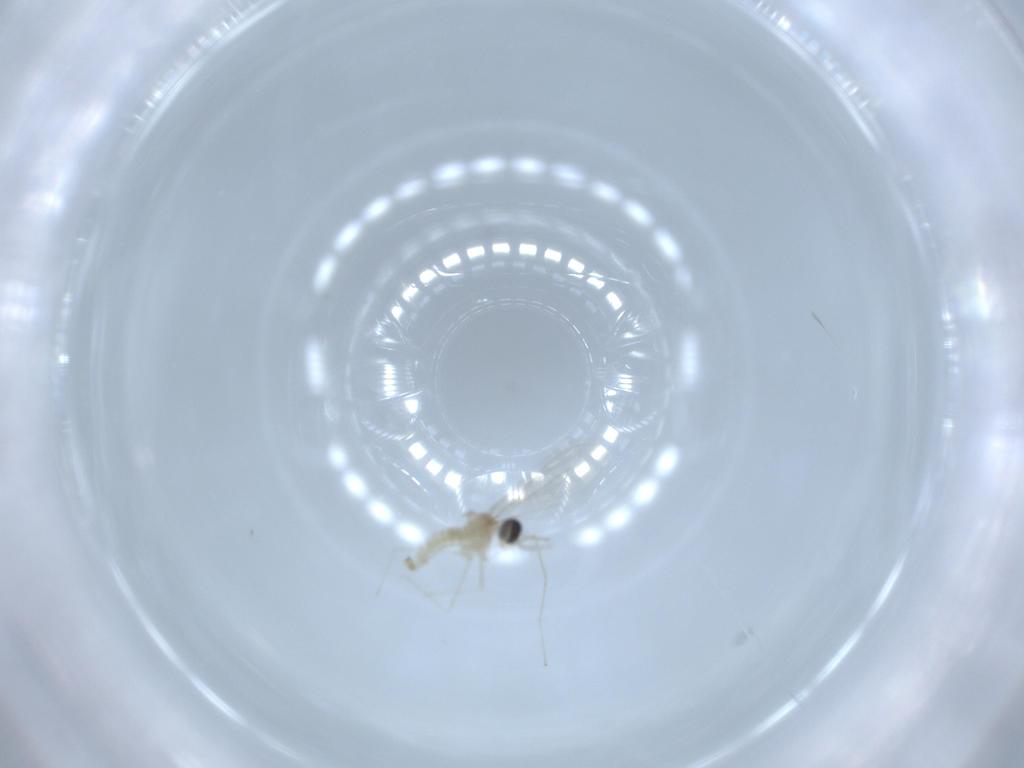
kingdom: Animalia
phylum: Arthropoda
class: Insecta
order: Diptera
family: Cecidomyiidae
